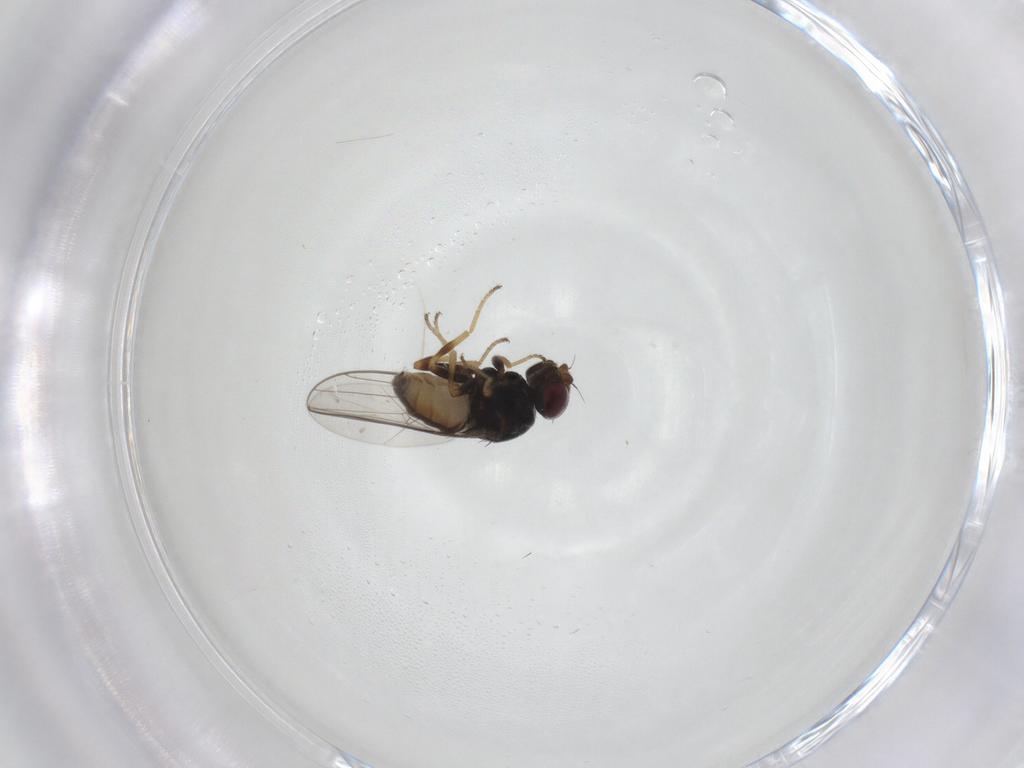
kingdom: Animalia
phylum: Arthropoda
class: Insecta
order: Diptera
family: Chloropidae
